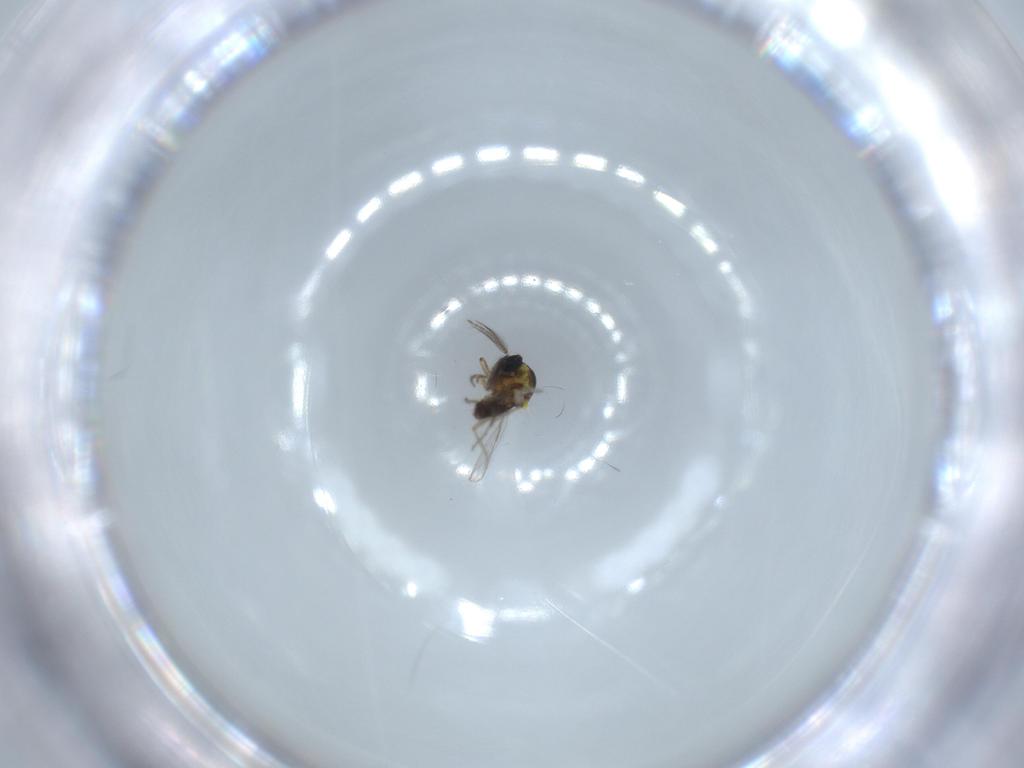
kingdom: Animalia
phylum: Arthropoda
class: Insecta
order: Diptera
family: Ceratopogonidae
